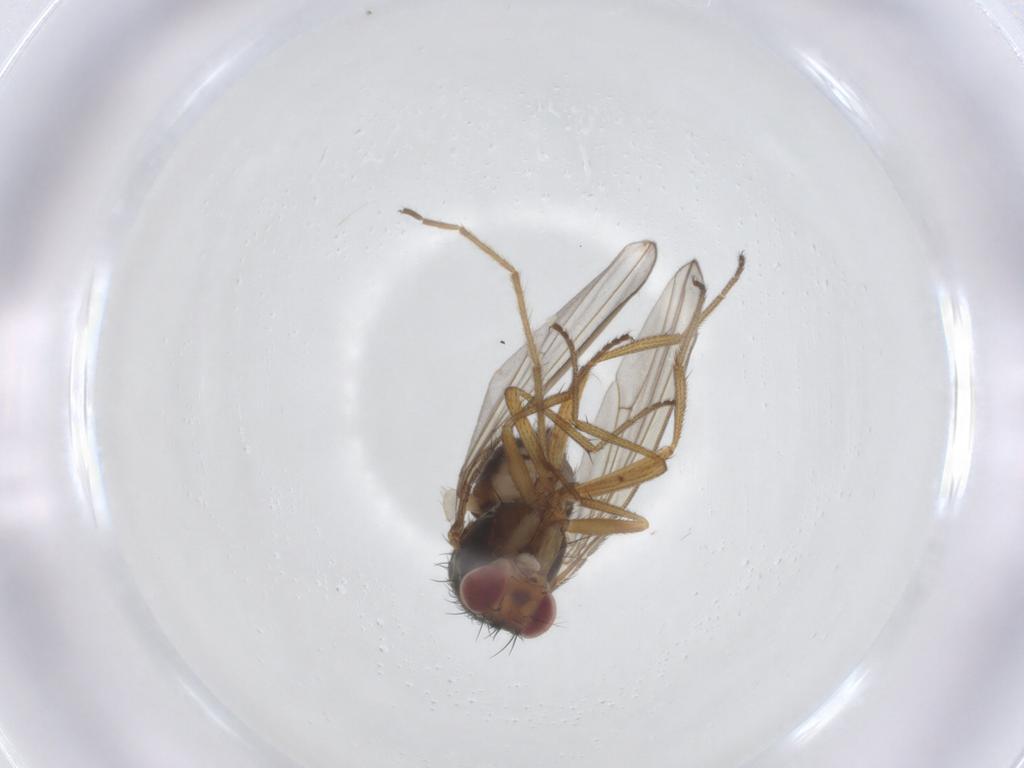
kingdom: Animalia
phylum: Arthropoda
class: Insecta
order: Diptera
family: Drosophilidae
